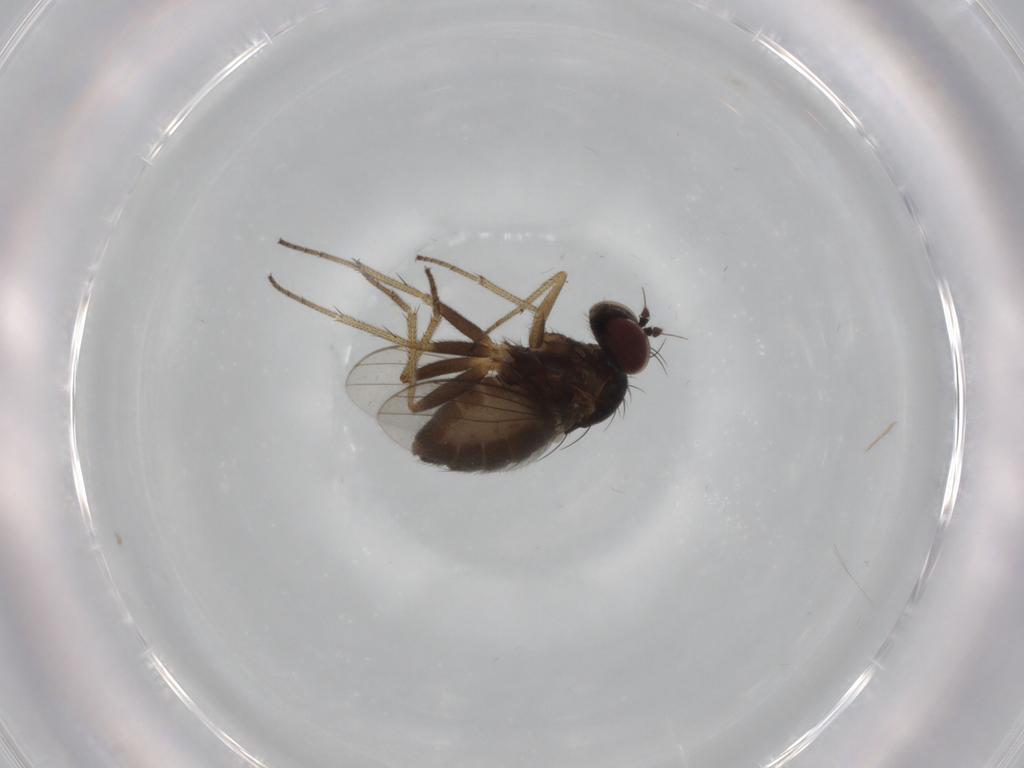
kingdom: Animalia
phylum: Arthropoda
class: Insecta
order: Diptera
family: Dolichopodidae
